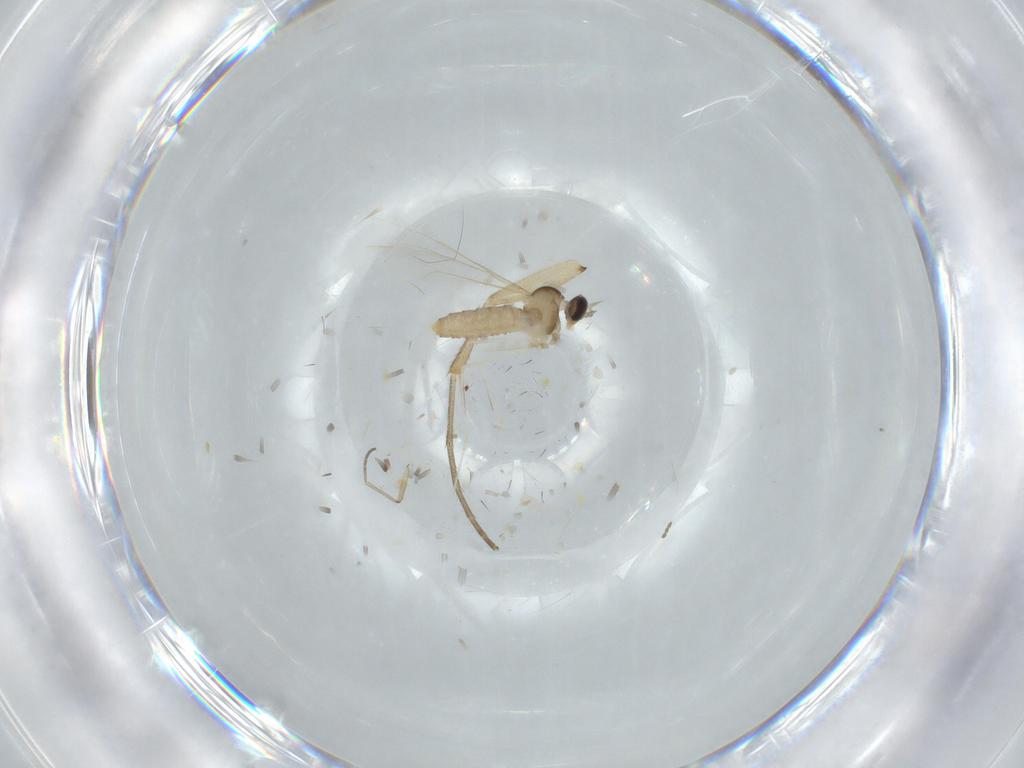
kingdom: Animalia
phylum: Arthropoda
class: Insecta
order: Diptera
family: Cecidomyiidae
